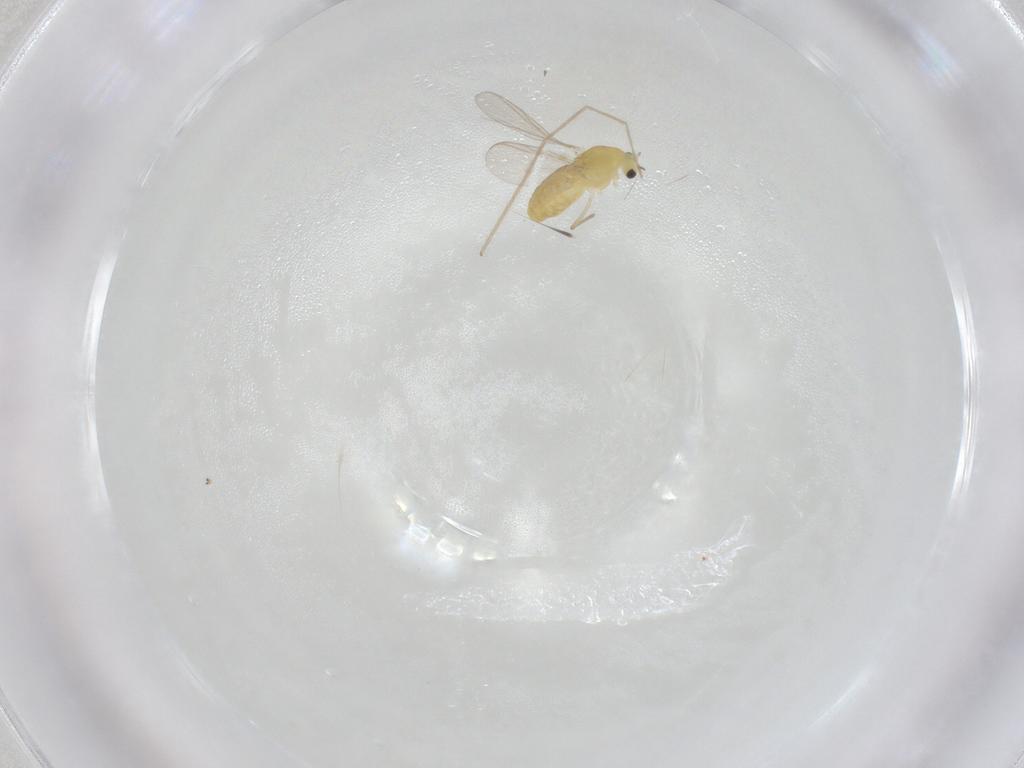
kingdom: Animalia
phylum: Arthropoda
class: Insecta
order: Diptera
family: Chironomidae
